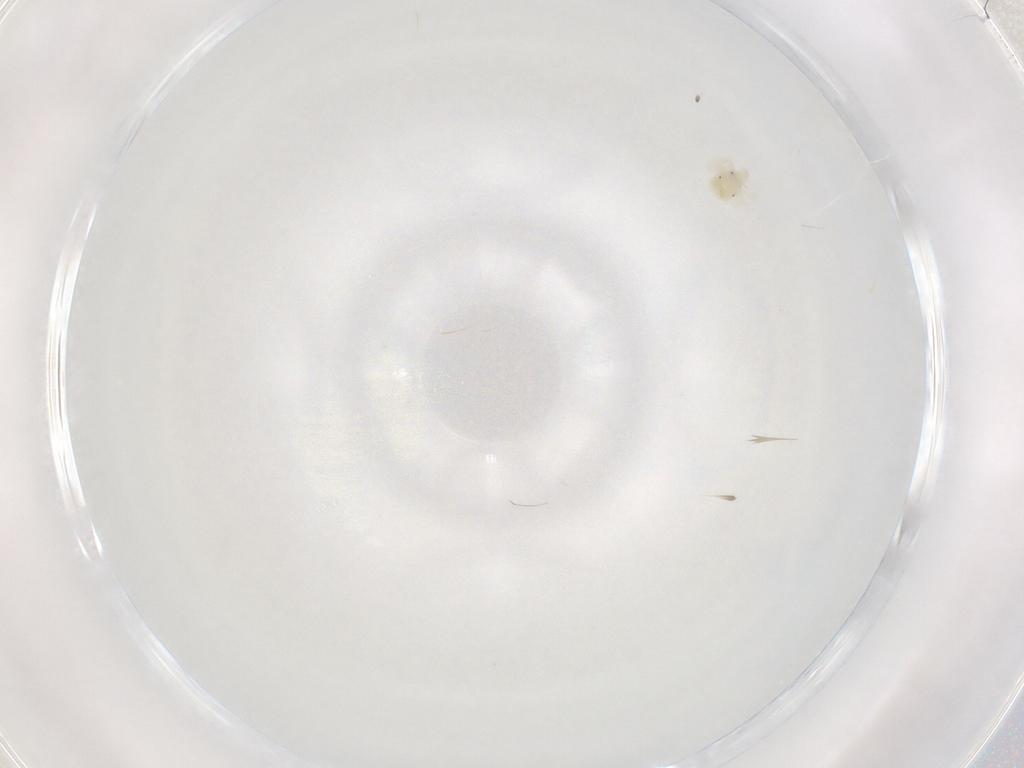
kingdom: Animalia
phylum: Arthropoda
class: Arachnida
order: Trombidiformes
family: Anystidae
